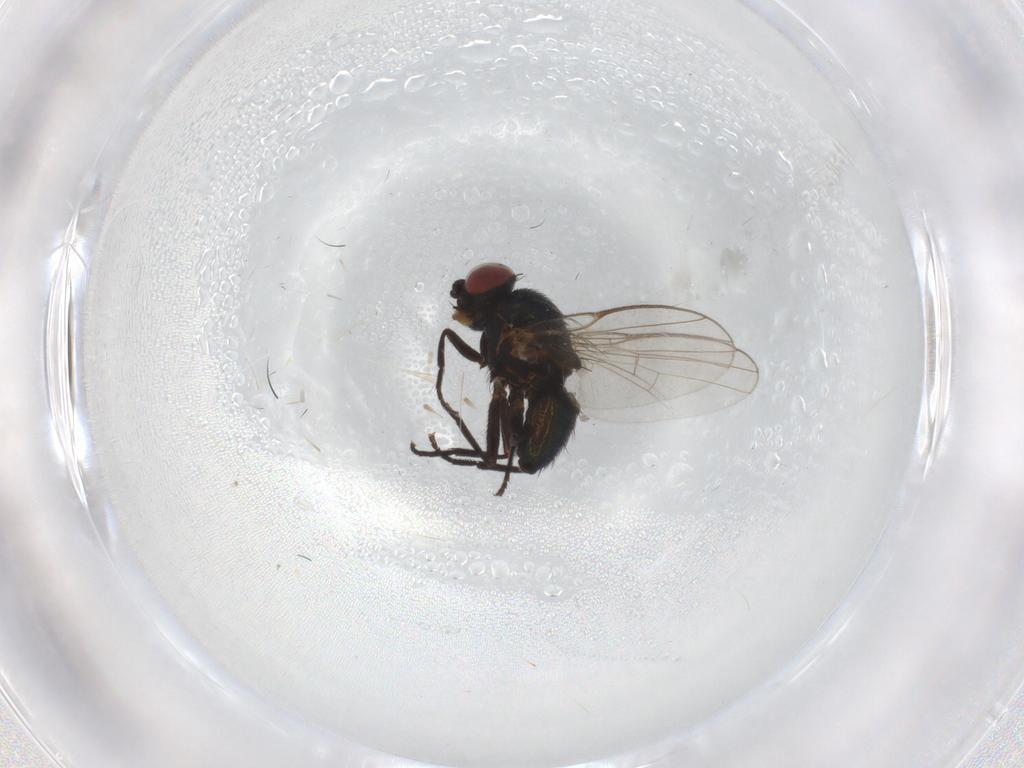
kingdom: Animalia
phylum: Arthropoda
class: Insecta
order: Diptera
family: Agromyzidae
